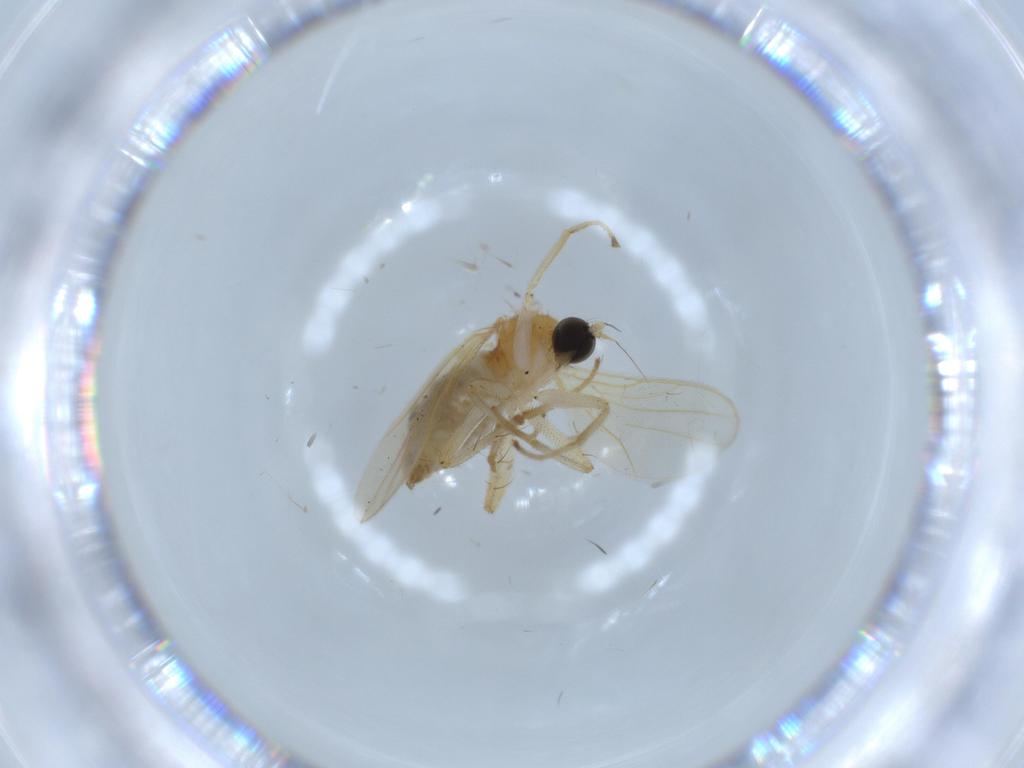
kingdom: Animalia
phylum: Arthropoda
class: Insecta
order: Diptera
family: Hybotidae
